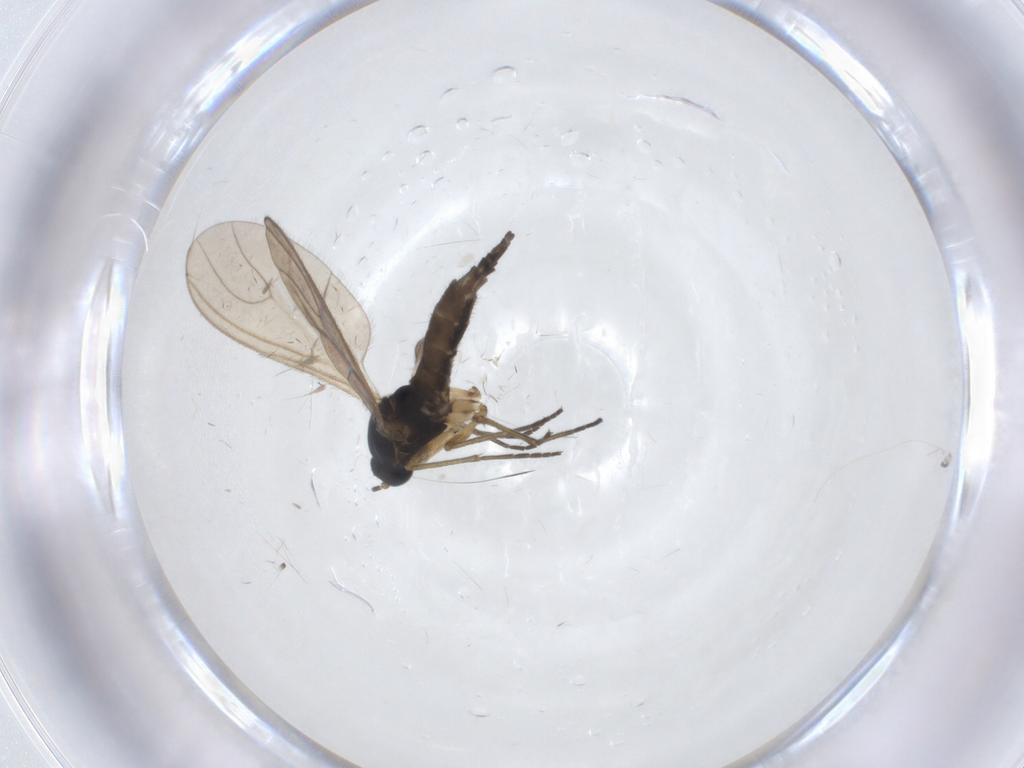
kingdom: Animalia
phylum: Arthropoda
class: Insecta
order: Diptera
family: Sciaridae
